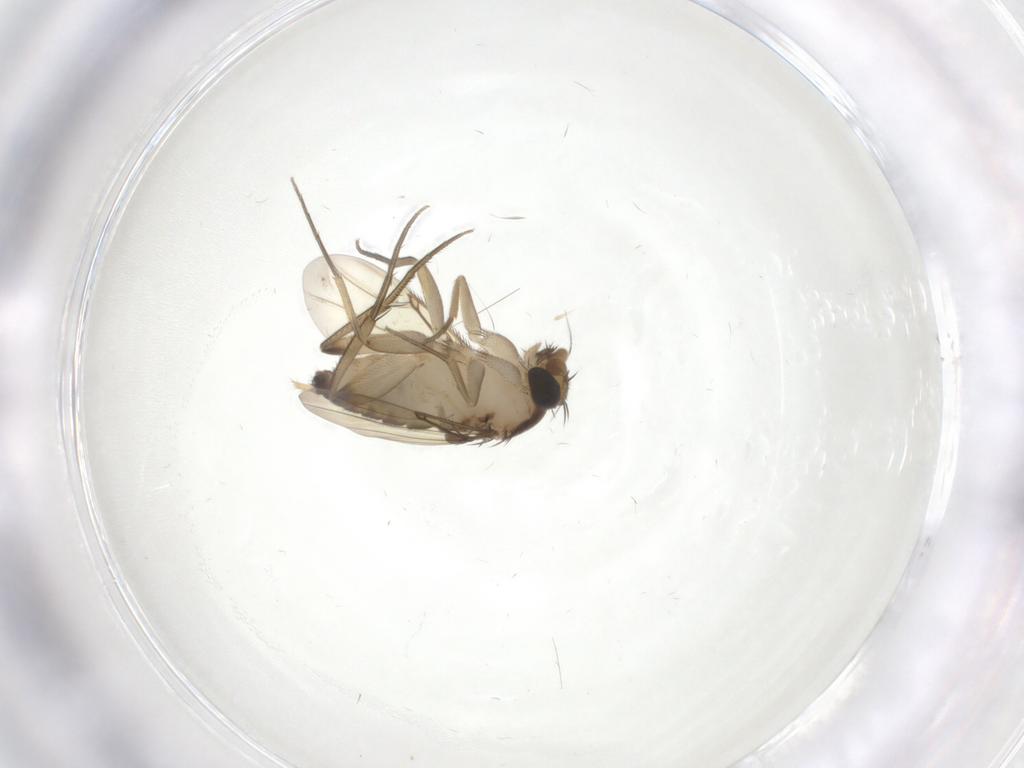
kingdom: Animalia
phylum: Arthropoda
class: Insecta
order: Diptera
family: Phoridae
